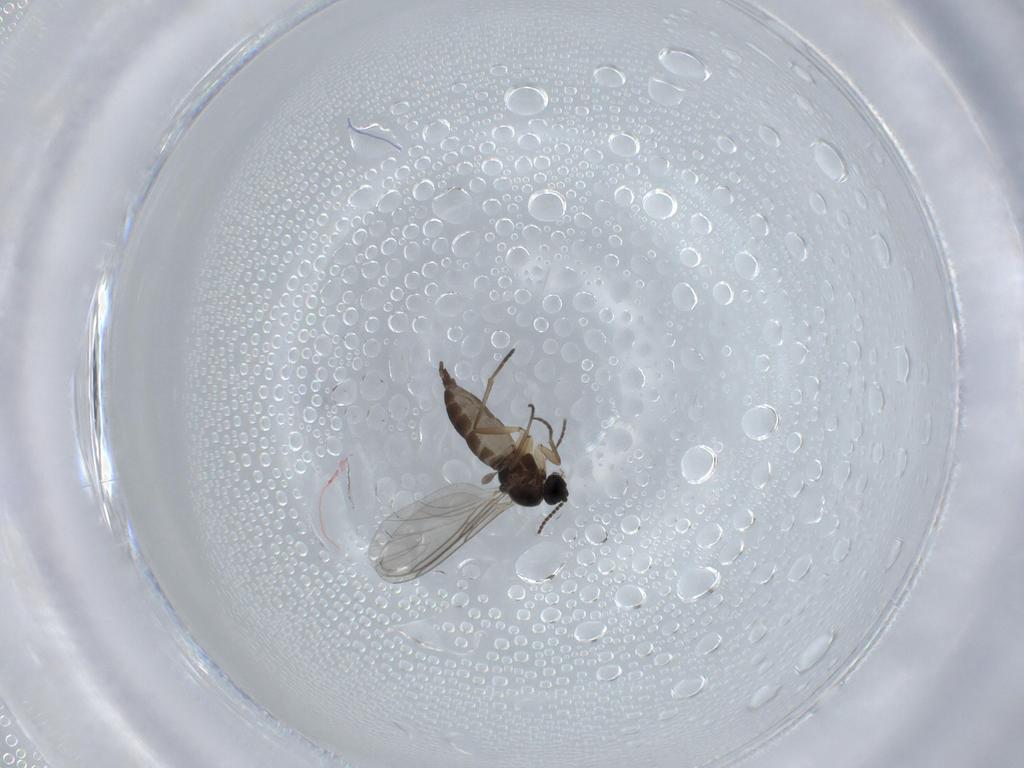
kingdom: Animalia
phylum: Arthropoda
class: Insecta
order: Diptera
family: Sciaridae
